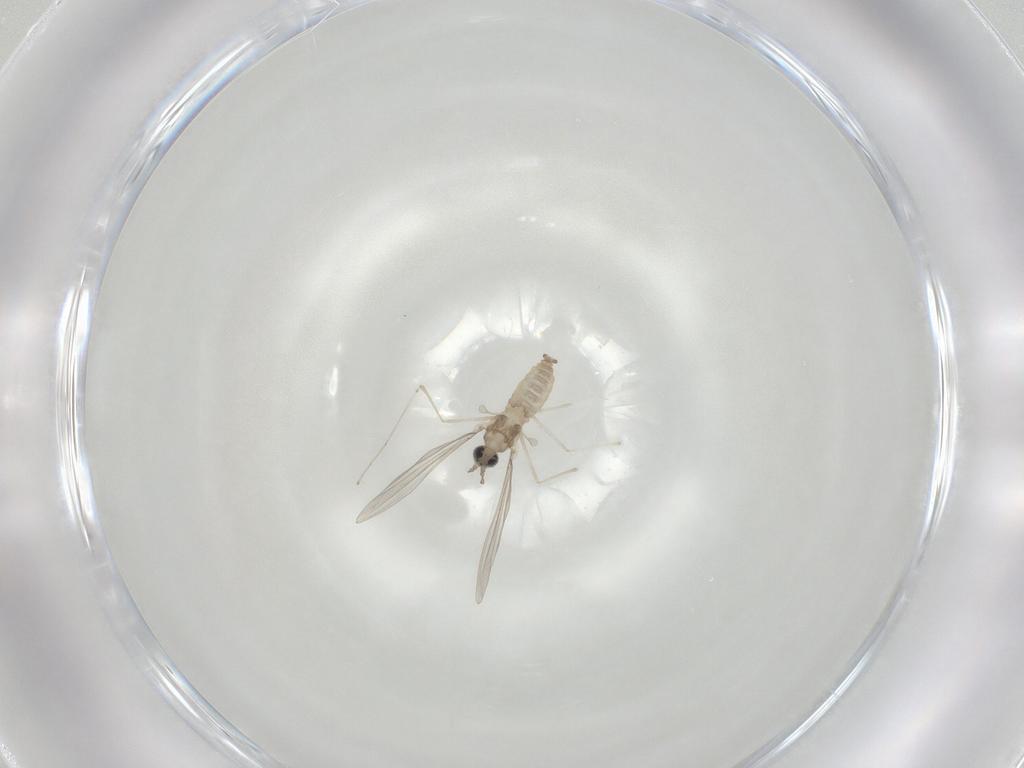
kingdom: Animalia
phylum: Arthropoda
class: Insecta
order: Diptera
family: Cecidomyiidae
